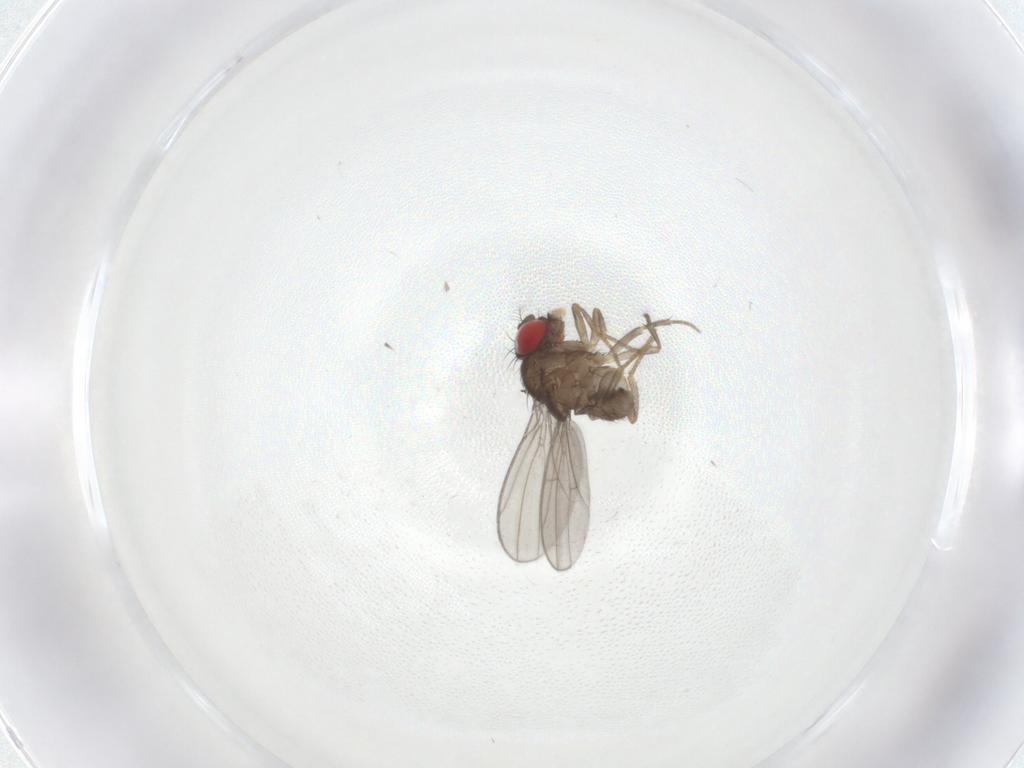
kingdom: Animalia
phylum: Arthropoda
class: Insecta
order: Diptera
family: Drosophilidae
